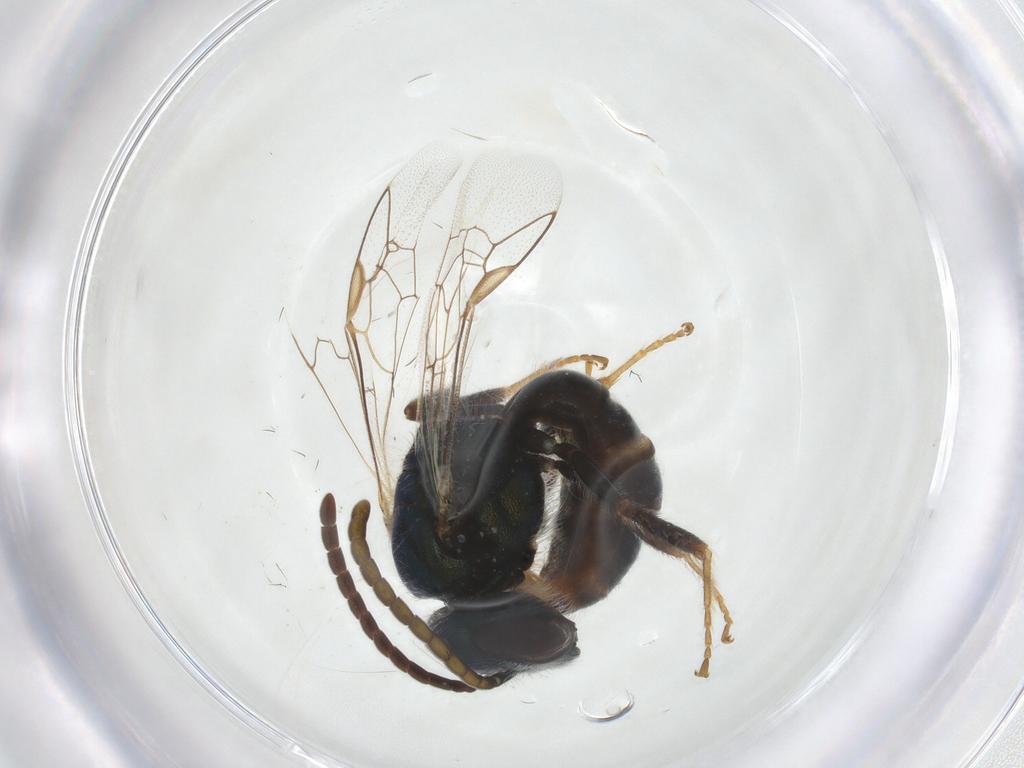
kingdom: Animalia
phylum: Arthropoda
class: Insecta
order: Hymenoptera
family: Halictidae
